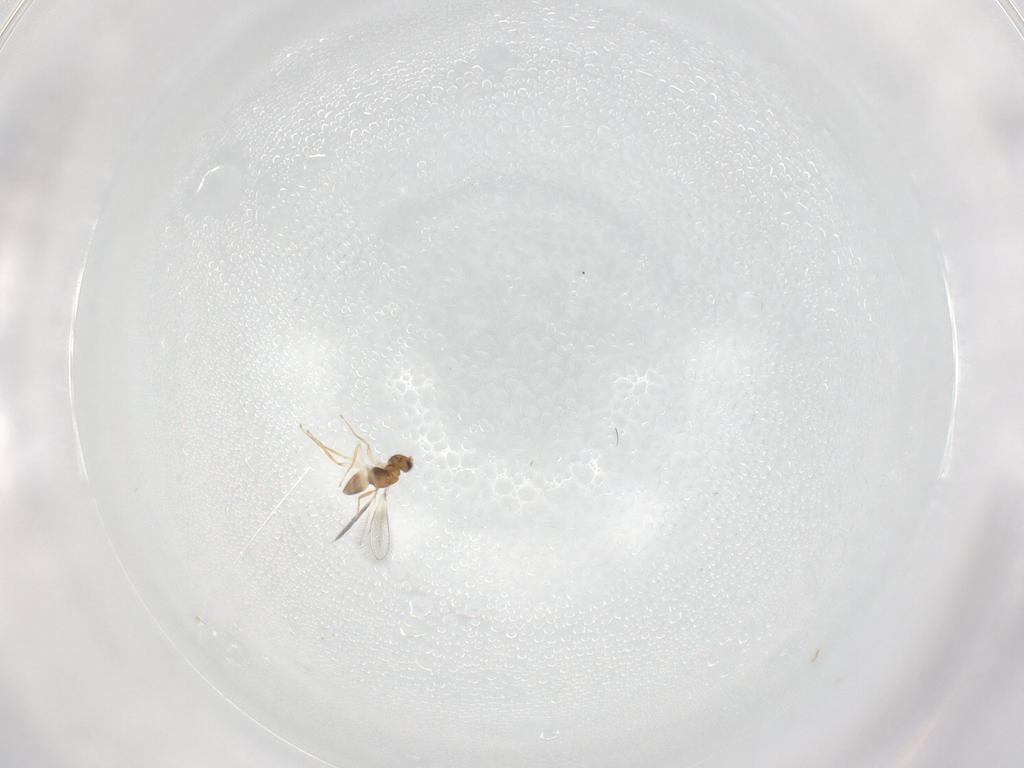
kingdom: Animalia
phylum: Arthropoda
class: Insecta
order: Hymenoptera
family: Mymaridae
